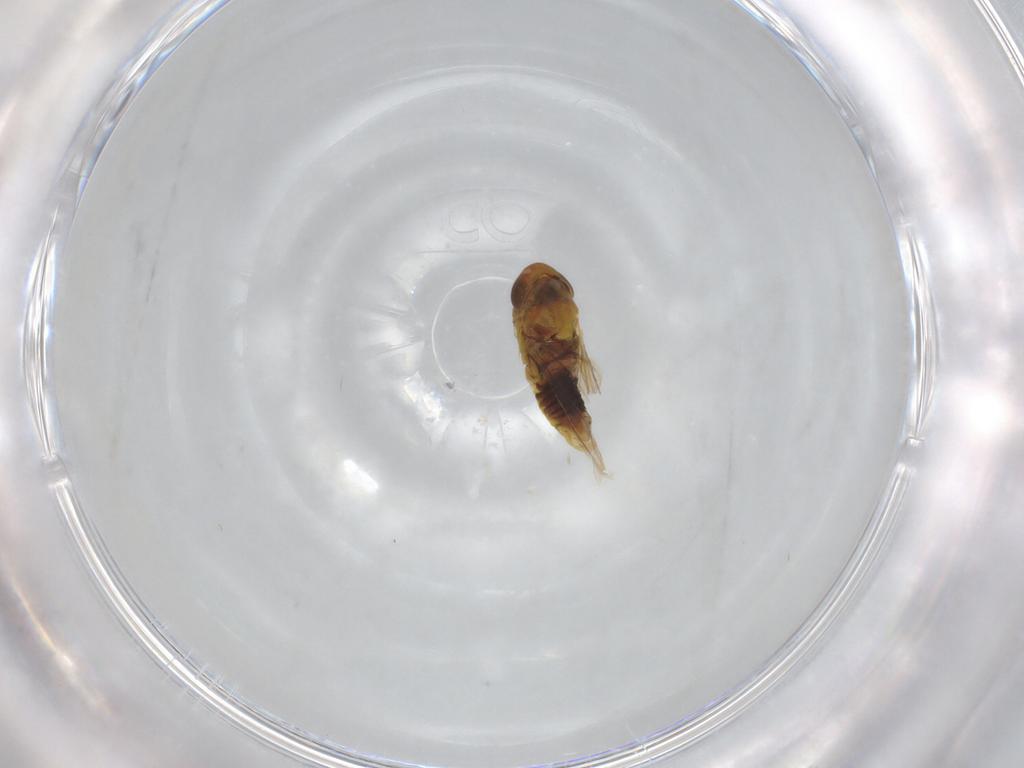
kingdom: Animalia
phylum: Arthropoda
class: Insecta
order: Hemiptera
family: Cicadellidae
